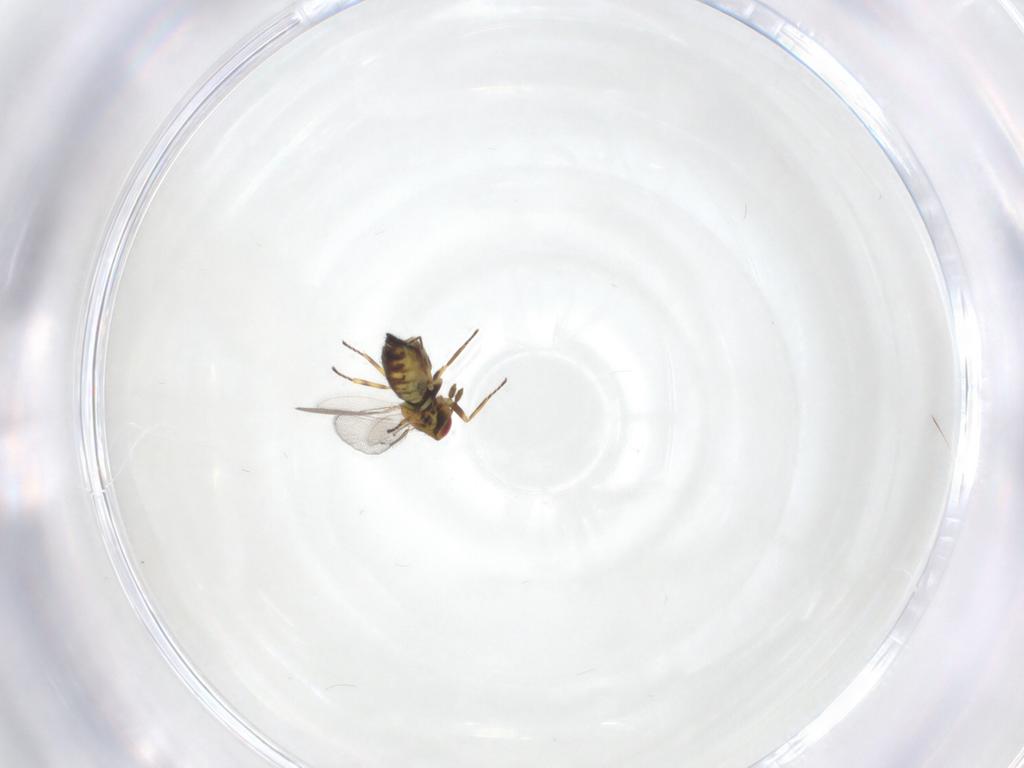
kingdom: Animalia
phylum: Arthropoda
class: Insecta
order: Hymenoptera
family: Eulophidae
